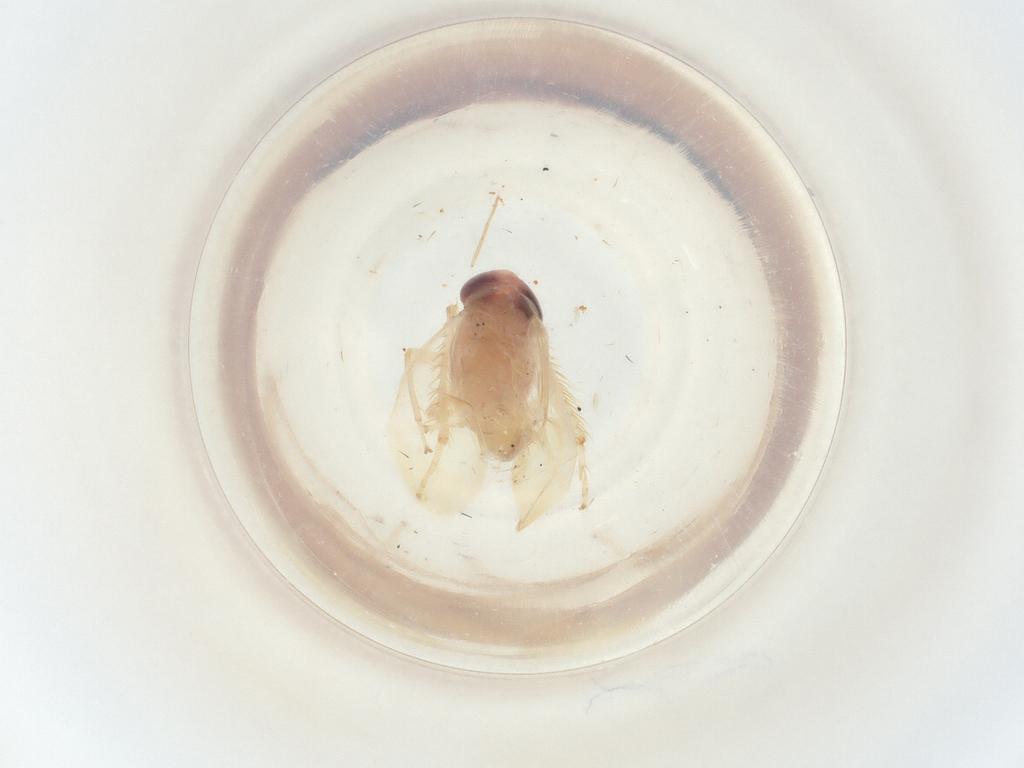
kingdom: Animalia
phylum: Arthropoda
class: Insecta
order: Hemiptera
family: Cicadellidae
